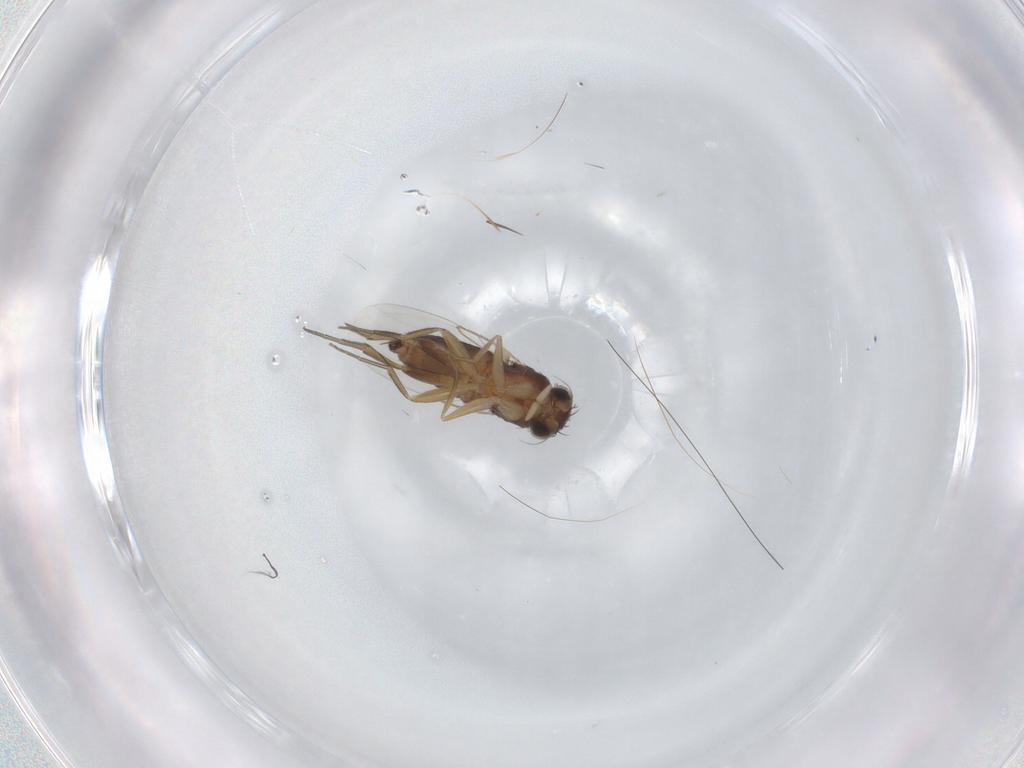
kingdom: Animalia
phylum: Arthropoda
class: Insecta
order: Diptera
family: Phoridae
